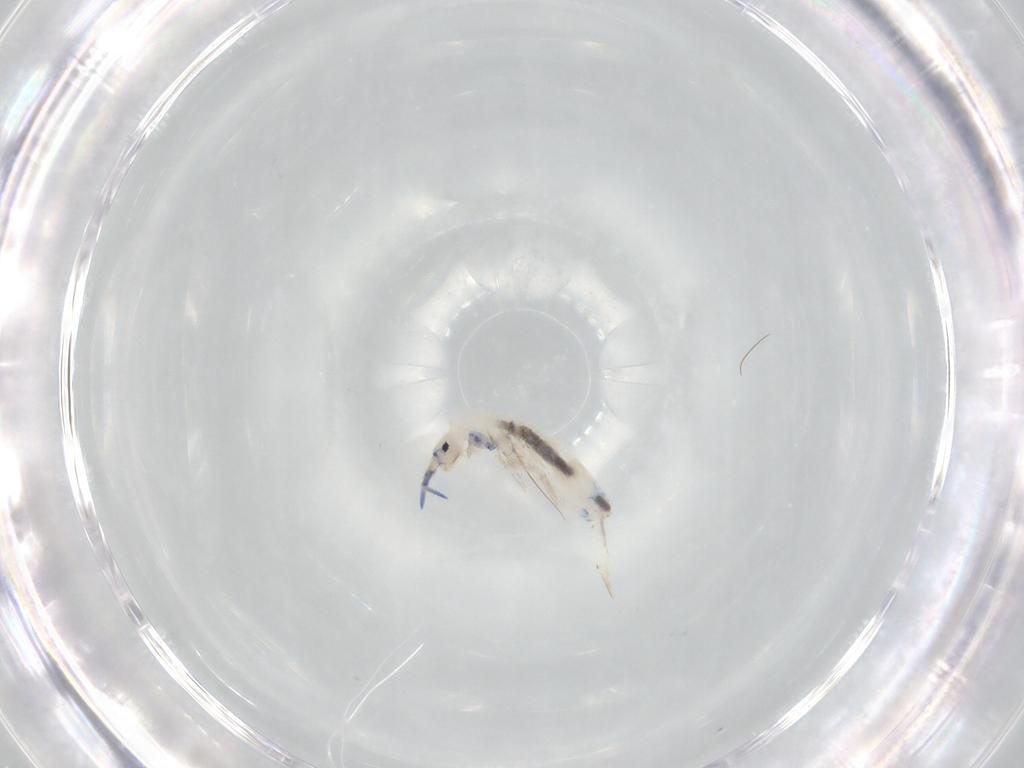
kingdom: Animalia
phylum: Arthropoda
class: Collembola
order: Entomobryomorpha
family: Entomobryidae
